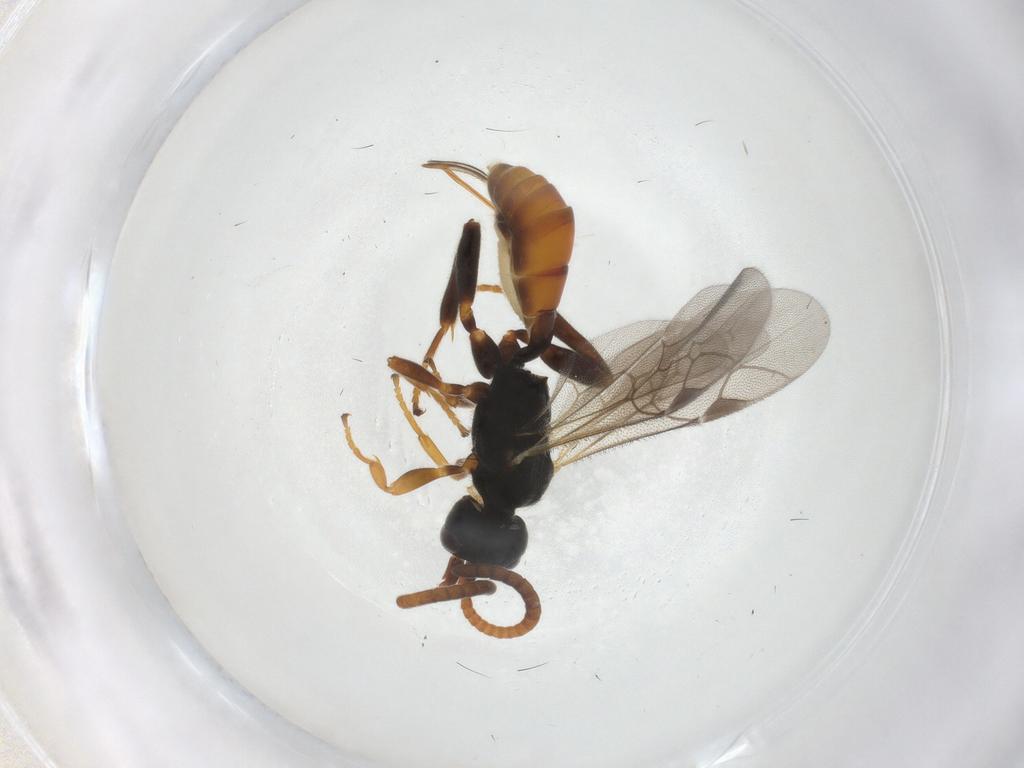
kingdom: Animalia
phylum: Arthropoda
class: Insecta
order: Hymenoptera
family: Ichneumonidae
